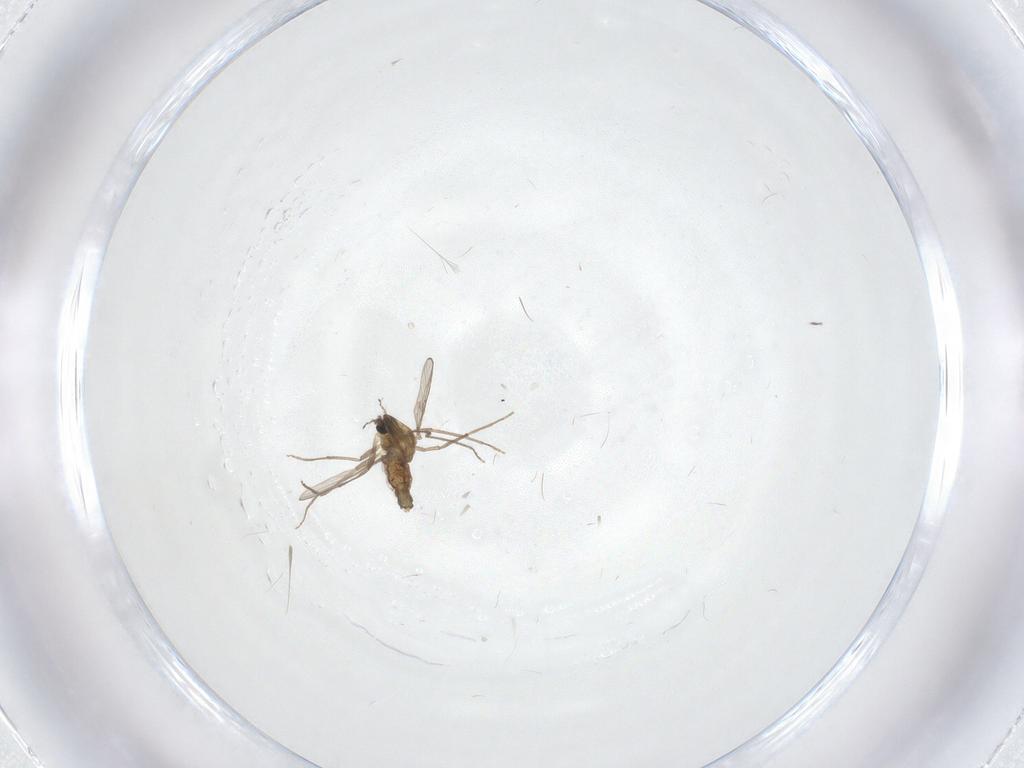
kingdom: Animalia
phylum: Arthropoda
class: Insecta
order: Diptera
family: Chironomidae
